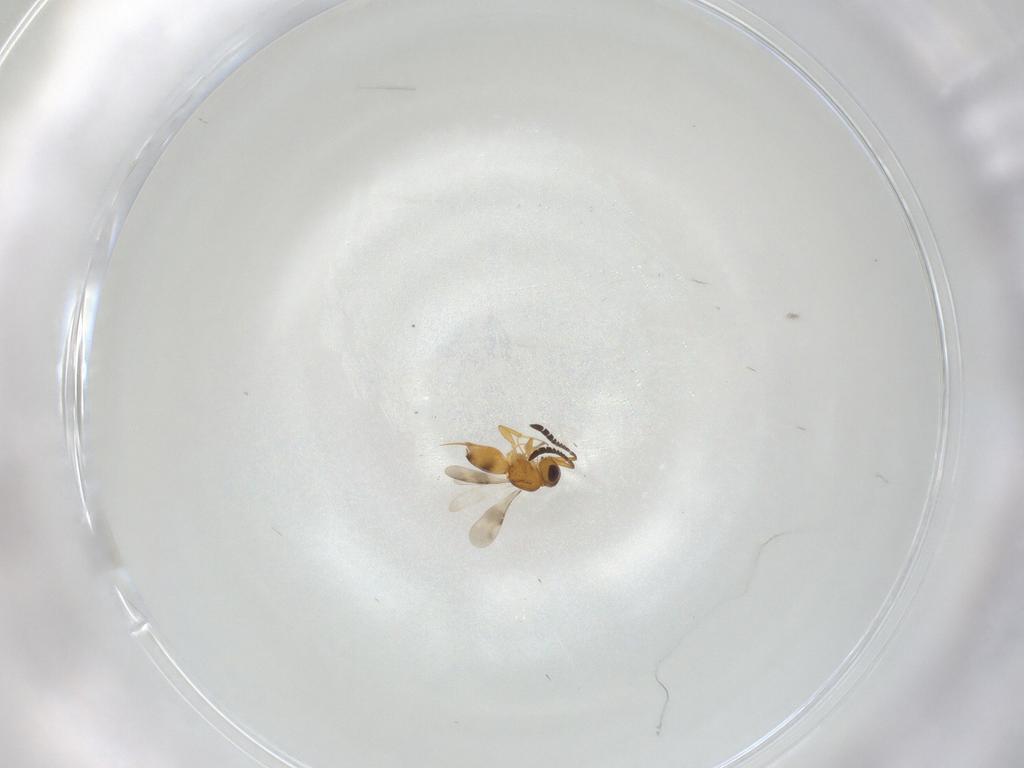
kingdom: Animalia
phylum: Arthropoda
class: Insecta
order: Hymenoptera
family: Ceraphronidae
